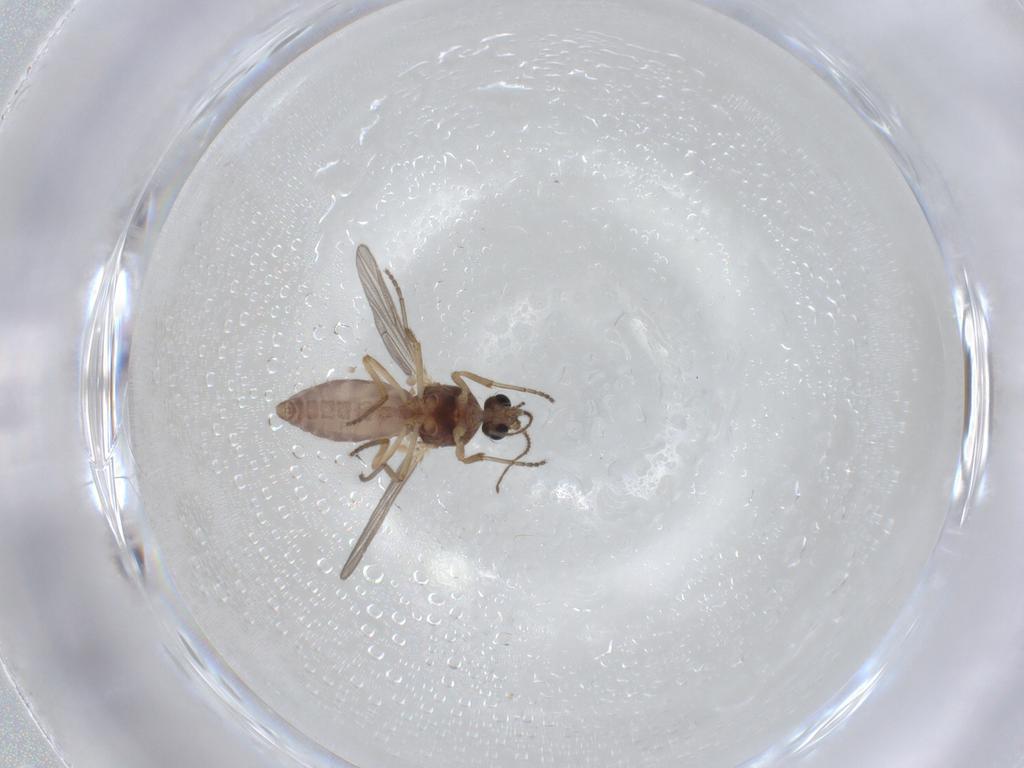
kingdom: Animalia
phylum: Arthropoda
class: Insecta
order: Diptera
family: Ceratopogonidae
